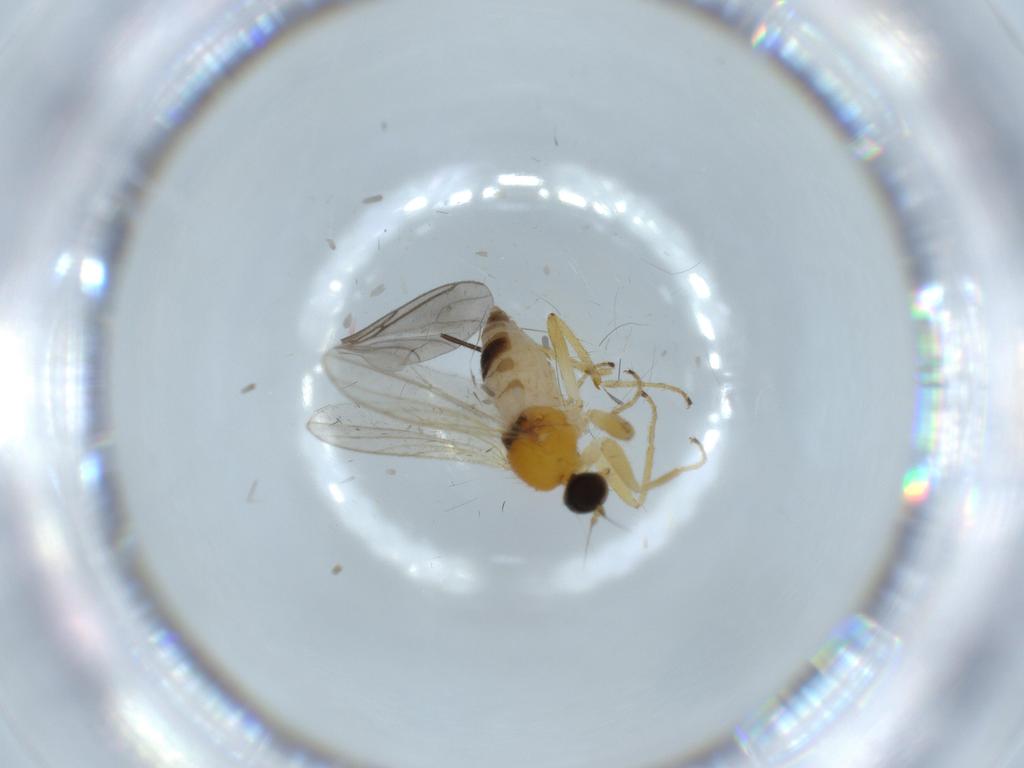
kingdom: Animalia
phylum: Arthropoda
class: Insecta
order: Diptera
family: Hybotidae
